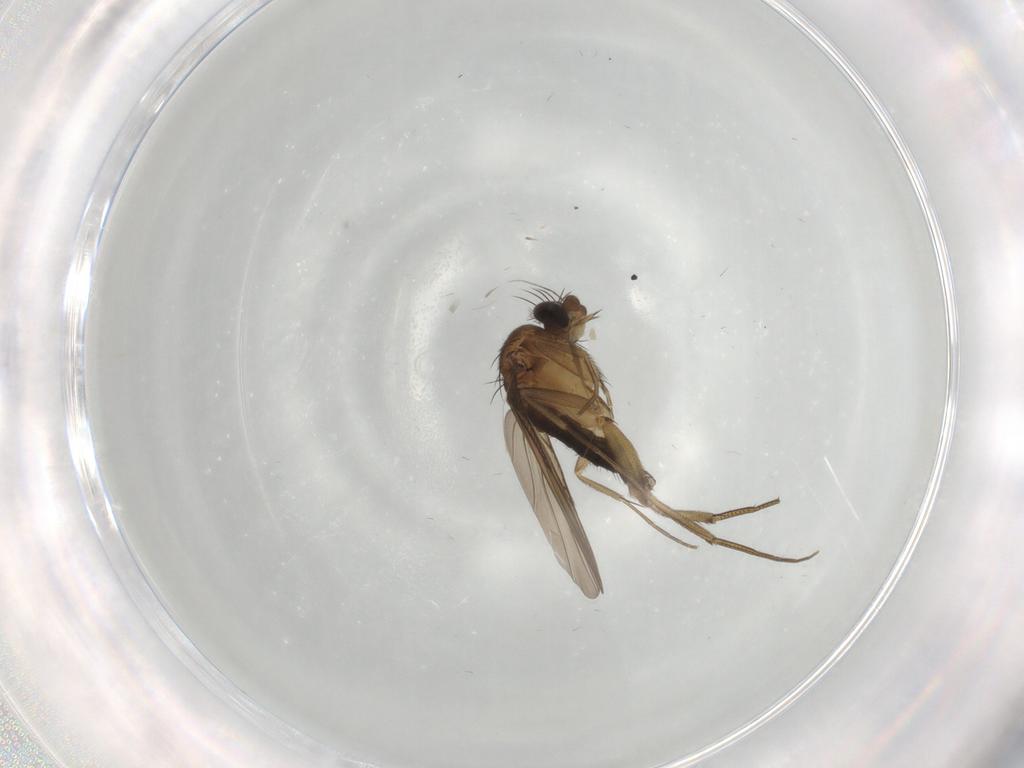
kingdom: Animalia
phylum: Arthropoda
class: Insecta
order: Diptera
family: Phoridae
